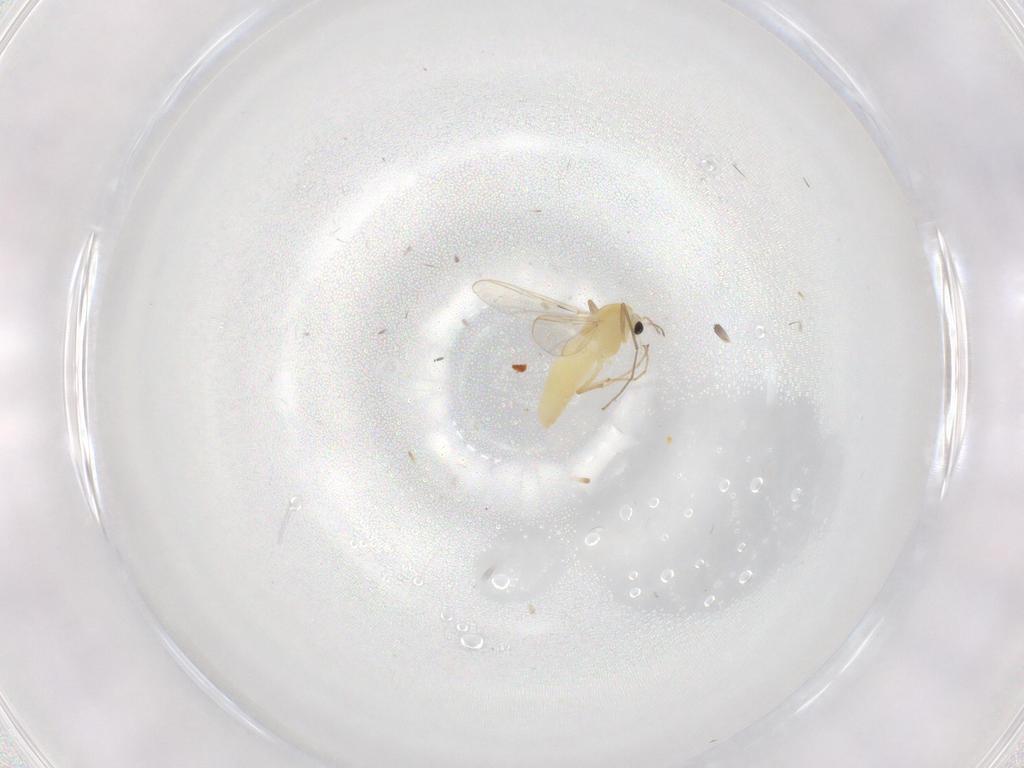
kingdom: Animalia
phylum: Arthropoda
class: Insecta
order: Diptera
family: Chironomidae
